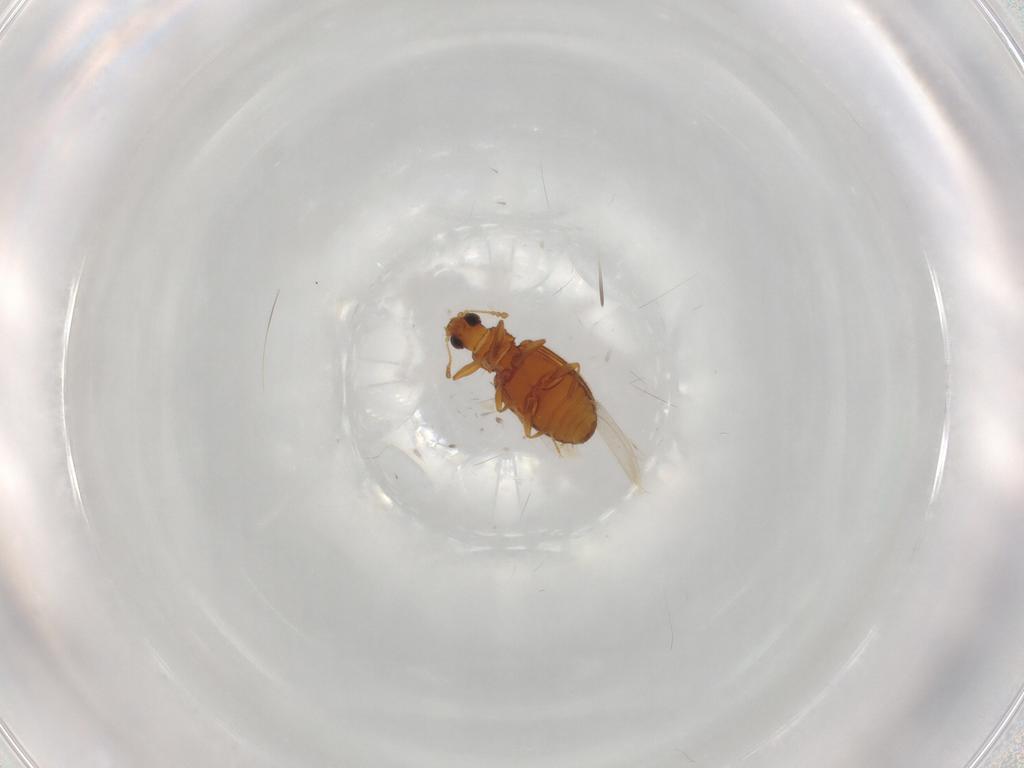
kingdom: Animalia
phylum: Arthropoda
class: Insecta
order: Coleoptera
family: Latridiidae
